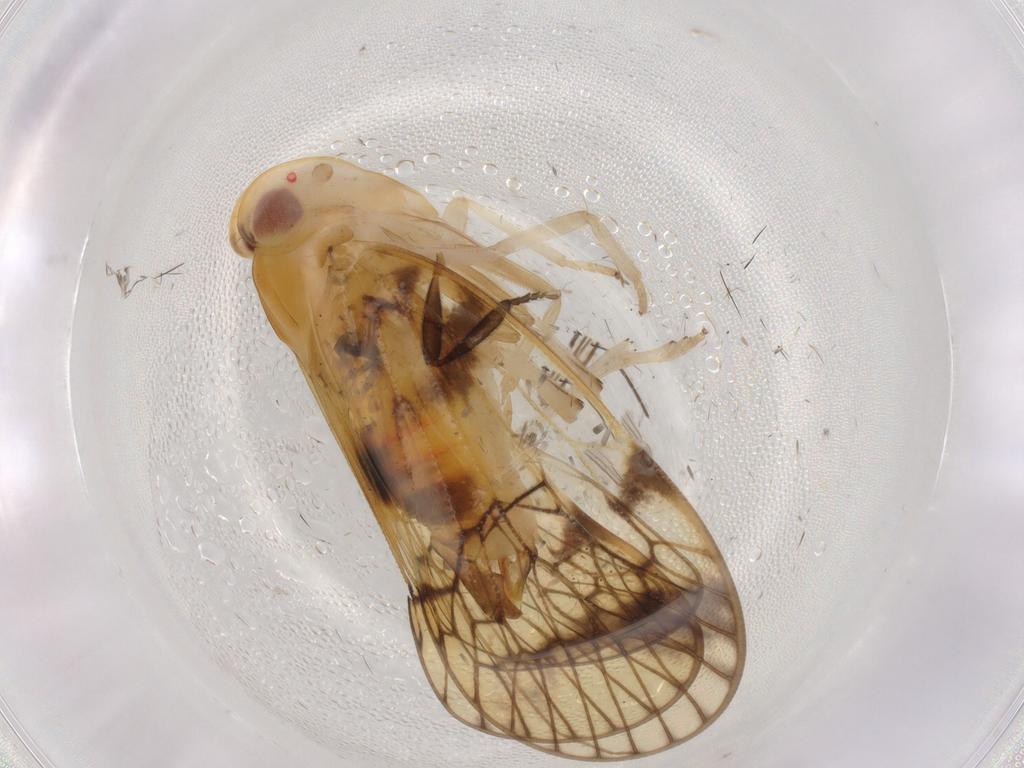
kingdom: Animalia
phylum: Arthropoda
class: Insecta
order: Hemiptera
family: Cixiidae
